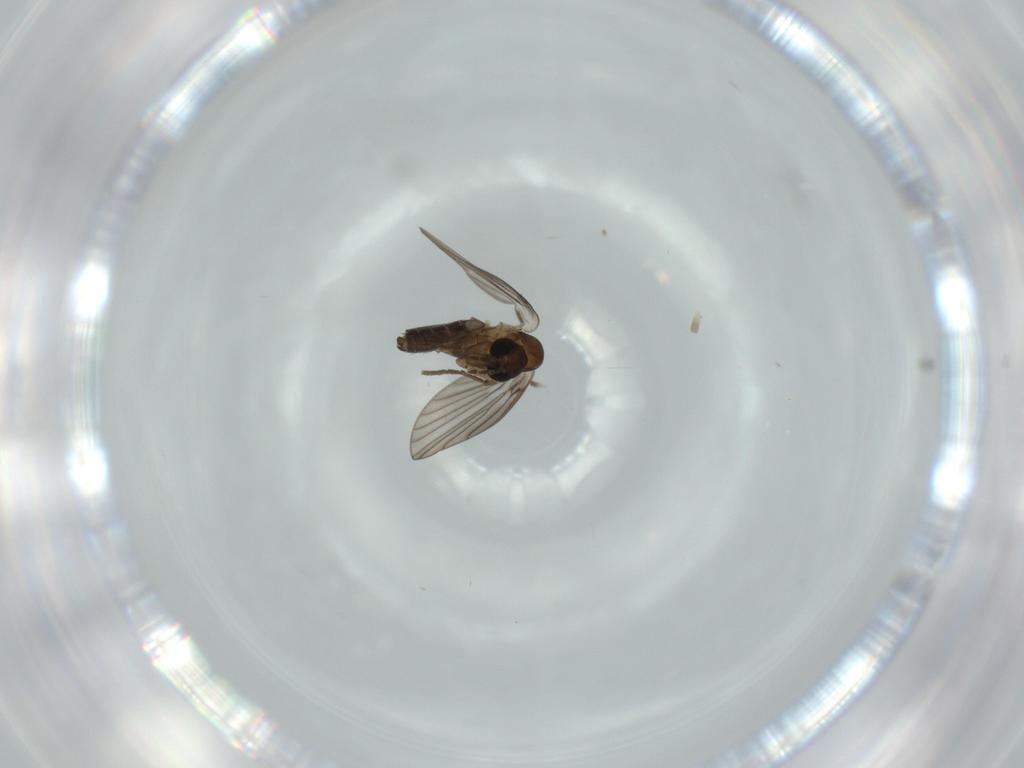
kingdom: Animalia
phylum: Arthropoda
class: Insecta
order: Diptera
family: Psychodidae
